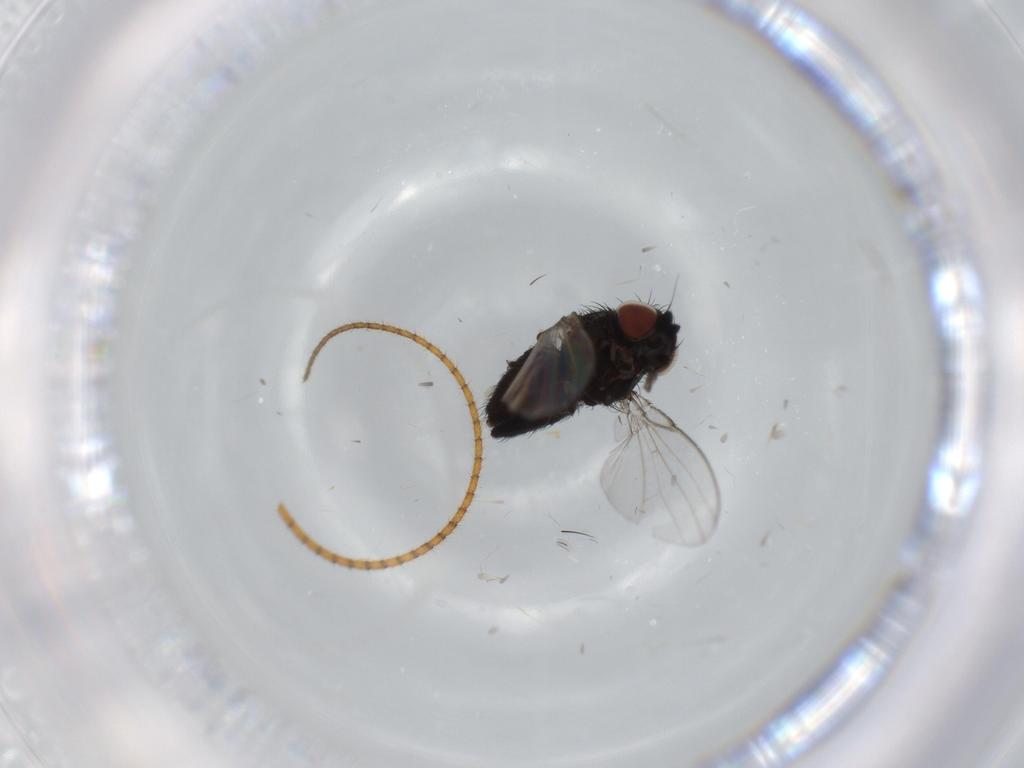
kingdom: Animalia
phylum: Arthropoda
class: Insecta
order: Diptera
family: Milichiidae
